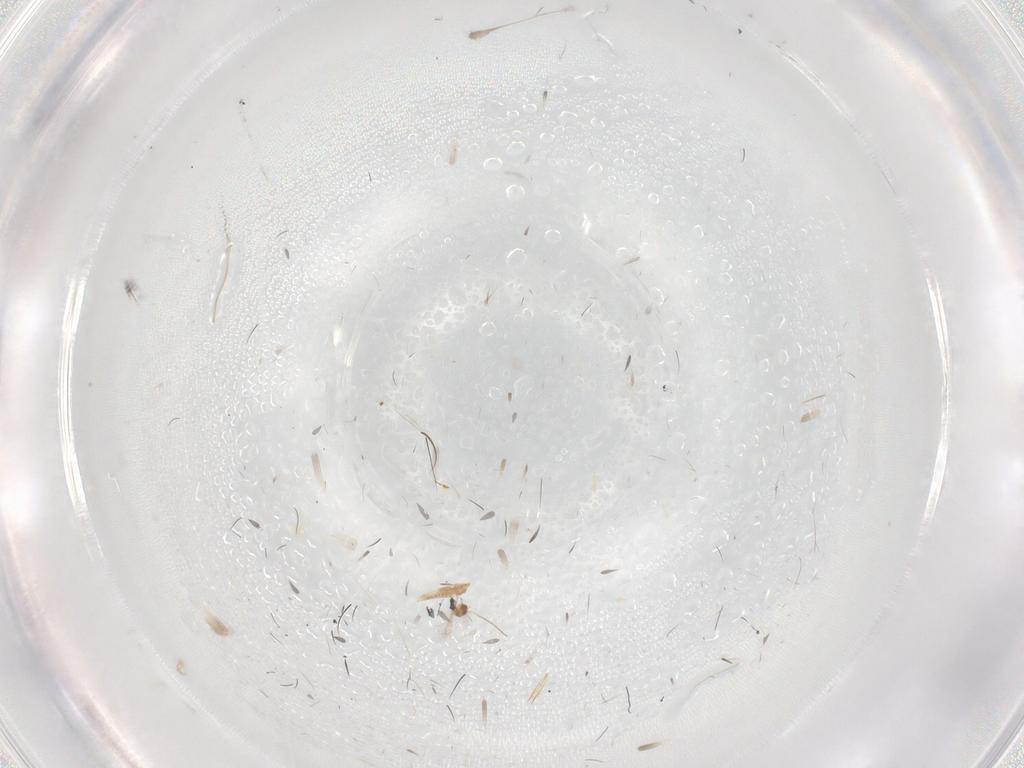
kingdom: Animalia
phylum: Arthropoda
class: Insecta
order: Hymenoptera
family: Mymaridae
